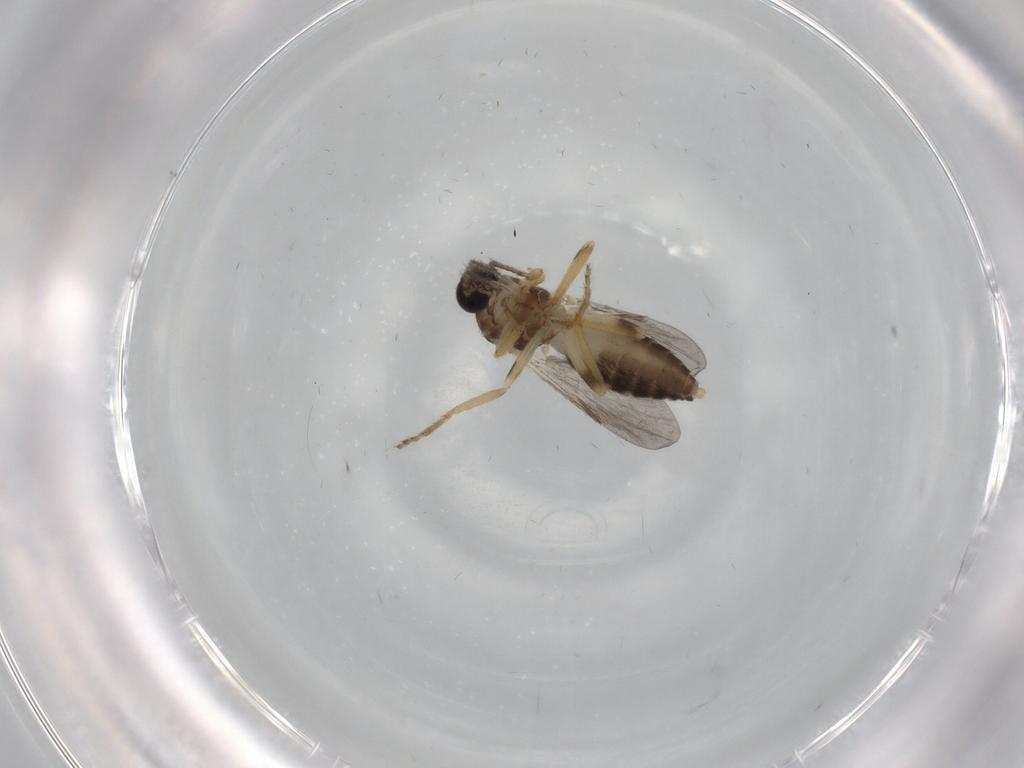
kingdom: Animalia
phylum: Arthropoda
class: Insecta
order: Diptera
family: Ceratopogonidae
